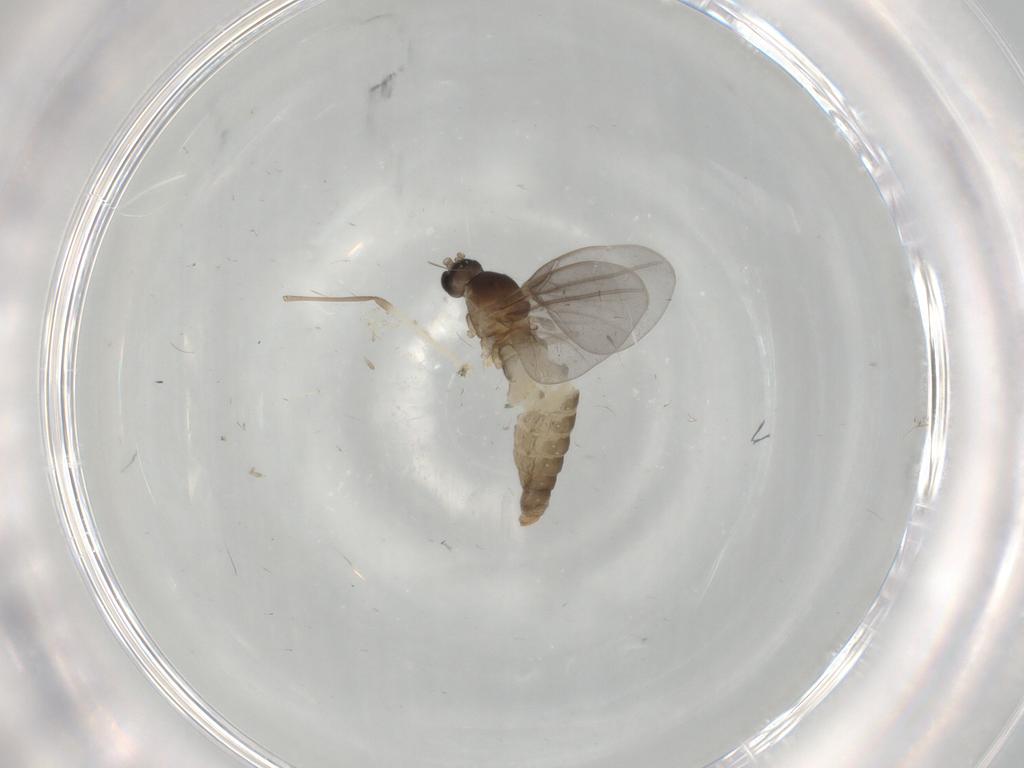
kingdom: Animalia
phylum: Arthropoda
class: Insecta
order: Diptera
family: Cecidomyiidae
